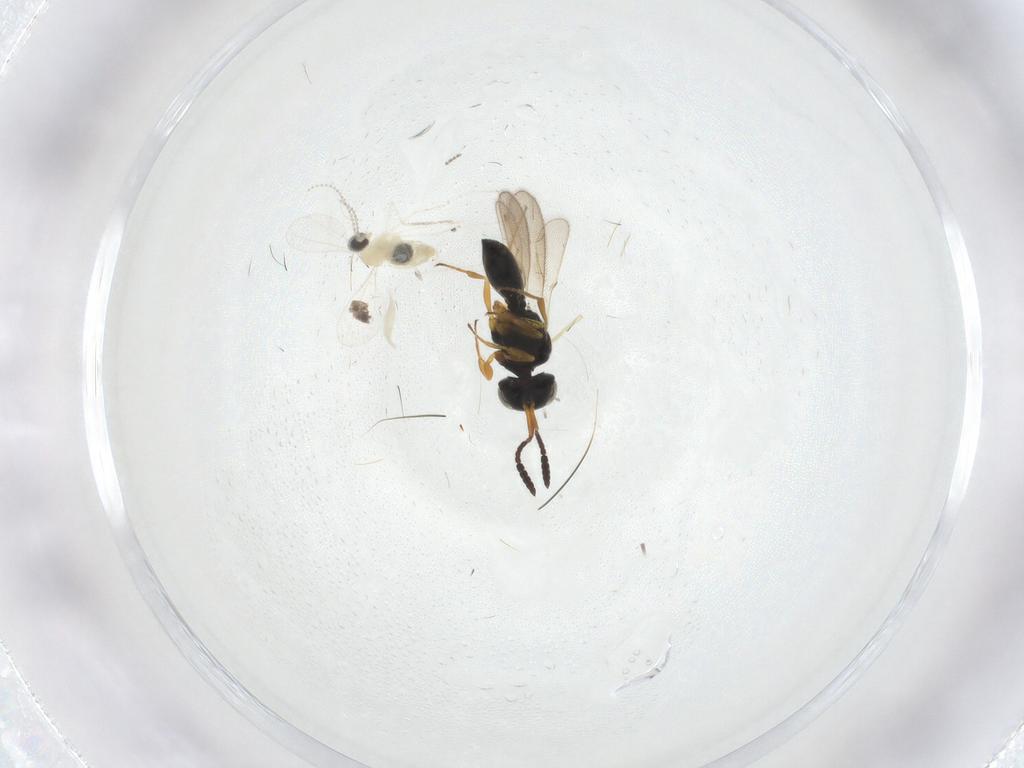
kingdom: Animalia
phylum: Arthropoda
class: Insecta
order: Diptera
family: Cecidomyiidae
